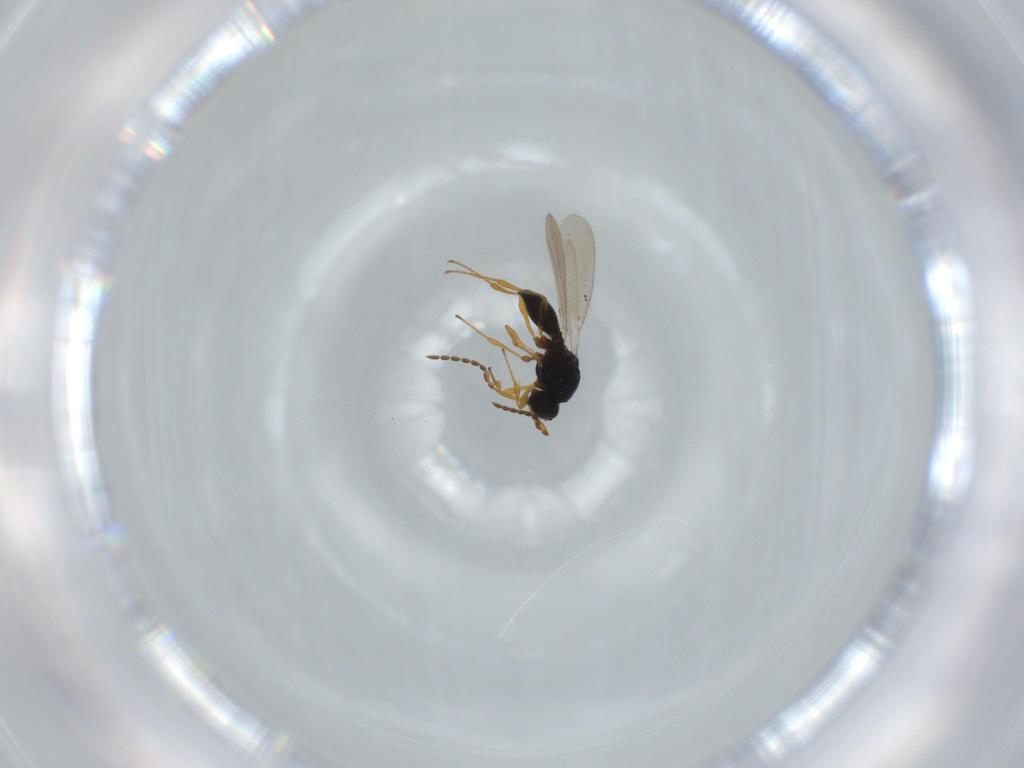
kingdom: Animalia
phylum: Arthropoda
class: Insecta
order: Diptera
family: Mythicomyiidae
